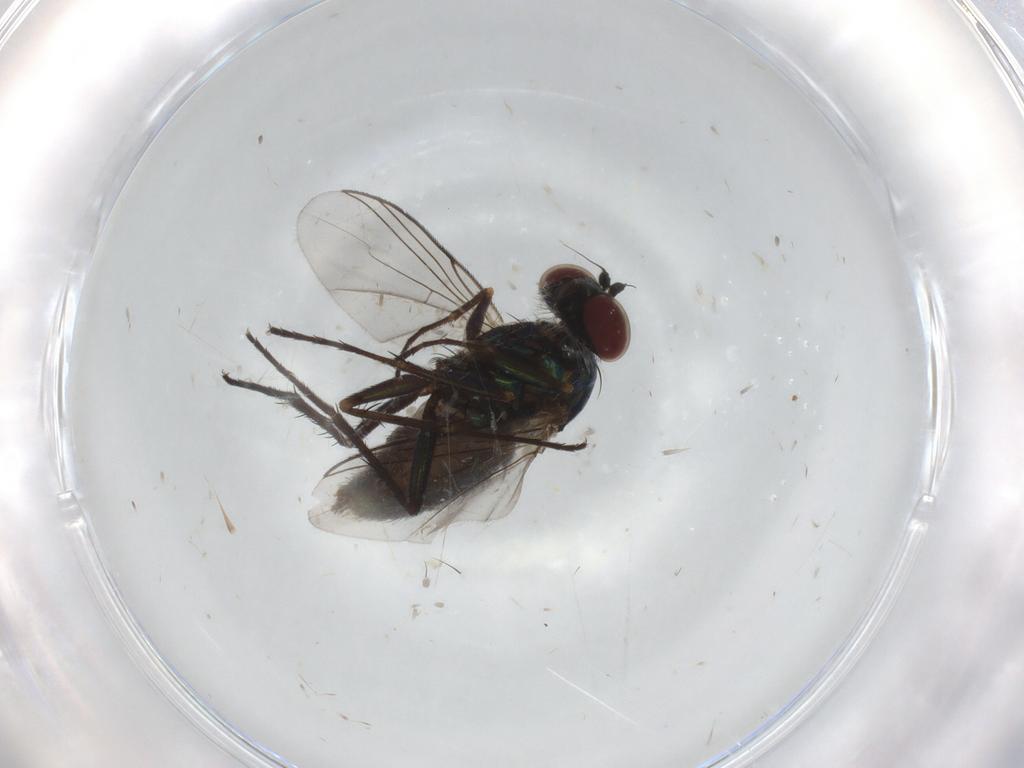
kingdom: Animalia
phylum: Arthropoda
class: Insecta
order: Diptera
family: Dolichopodidae
